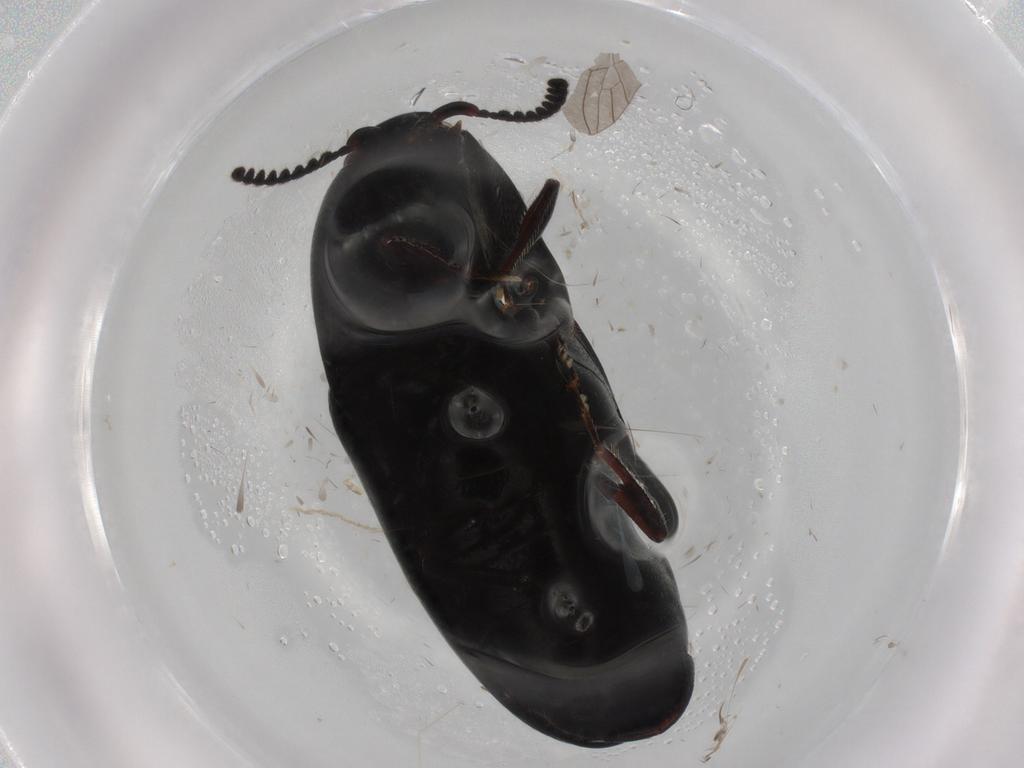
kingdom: Animalia
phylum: Arthropoda
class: Insecta
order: Coleoptera
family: Elateridae
